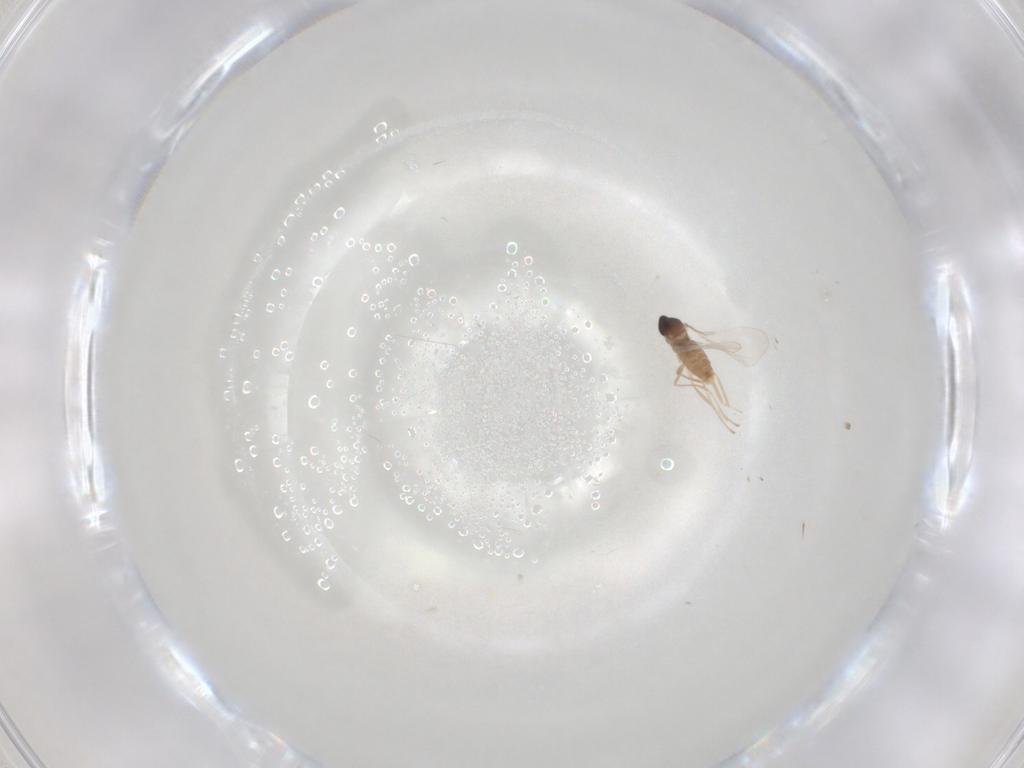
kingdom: Animalia
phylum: Arthropoda
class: Insecta
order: Diptera
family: Cecidomyiidae
